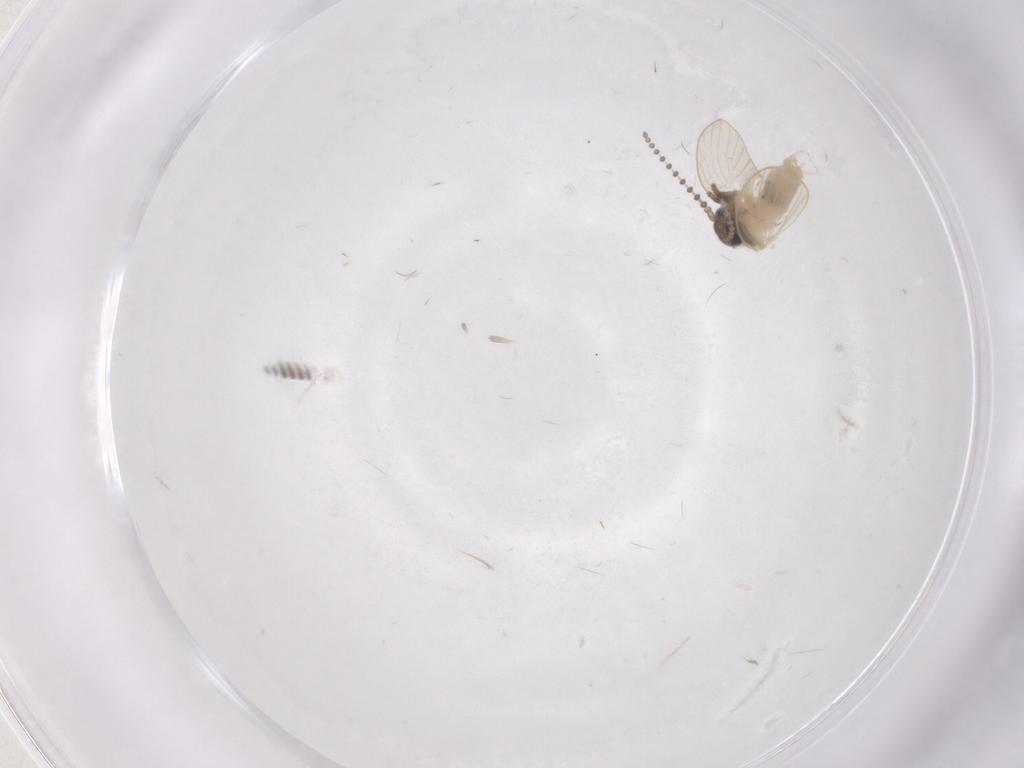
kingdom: Animalia
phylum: Arthropoda
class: Insecta
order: Diptera
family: Psychodidae
